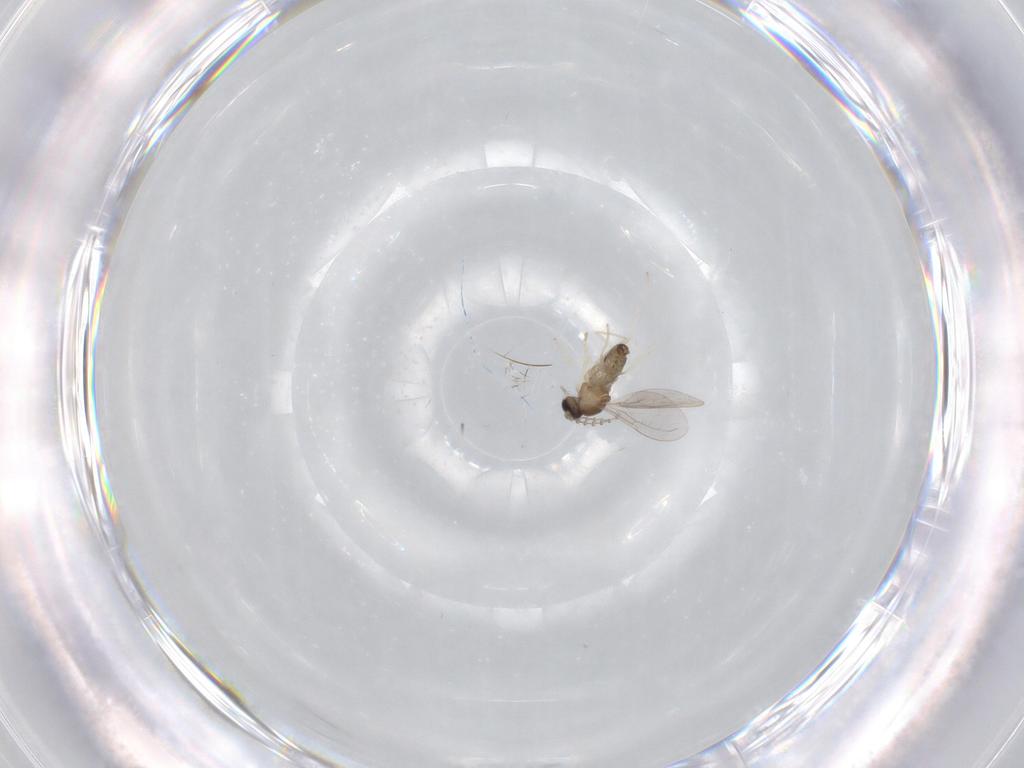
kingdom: Animalia
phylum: Arthropoda
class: Insecta
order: Diptera
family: Cecidomyiidae
